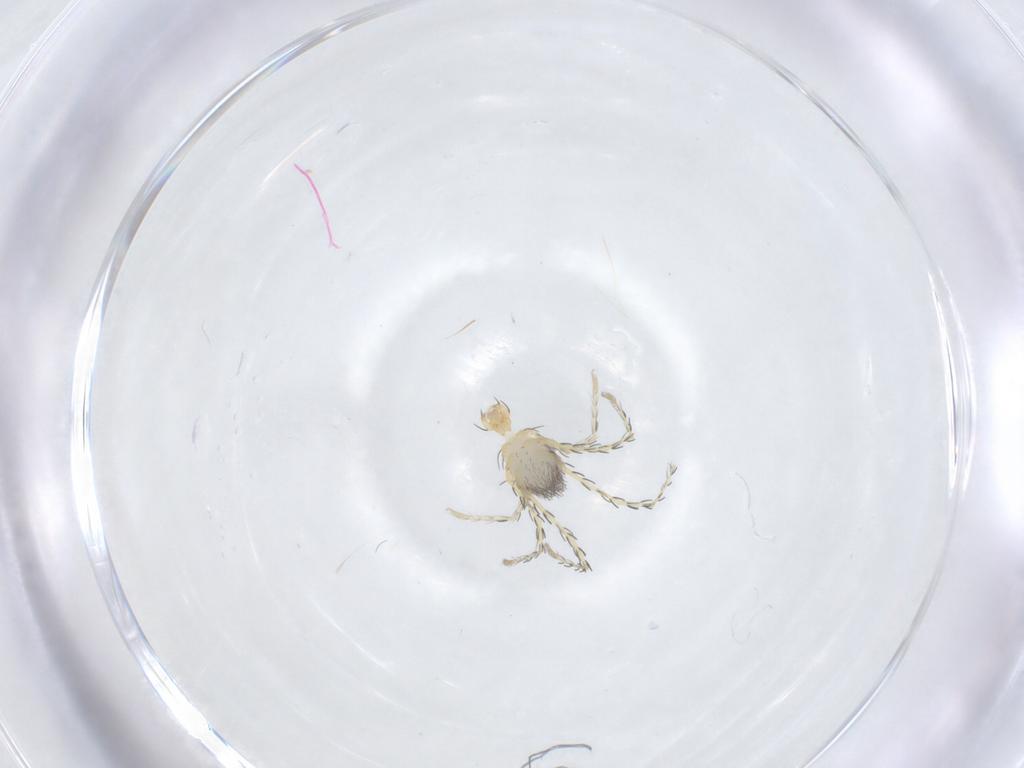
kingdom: Animalia
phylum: Arthropoda
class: Arachnida
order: Trombidiformes
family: Erythraeidae
